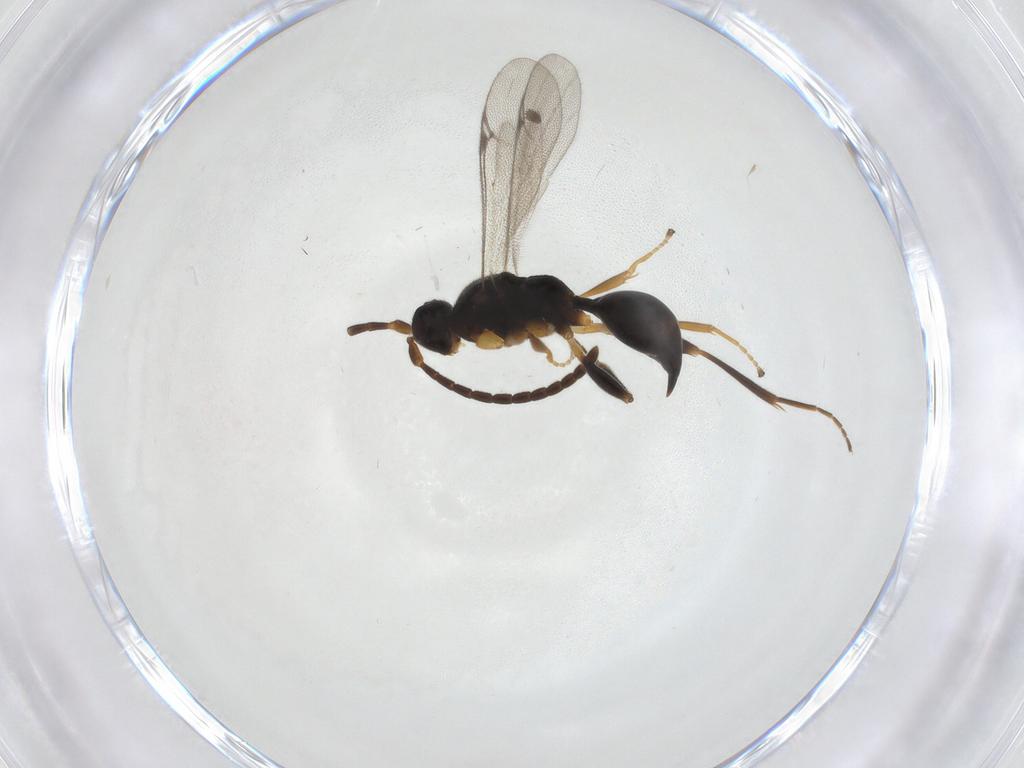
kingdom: Animalia
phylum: Arthropoda
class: Insecta
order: Hymenoptera
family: Proctotrupidae
